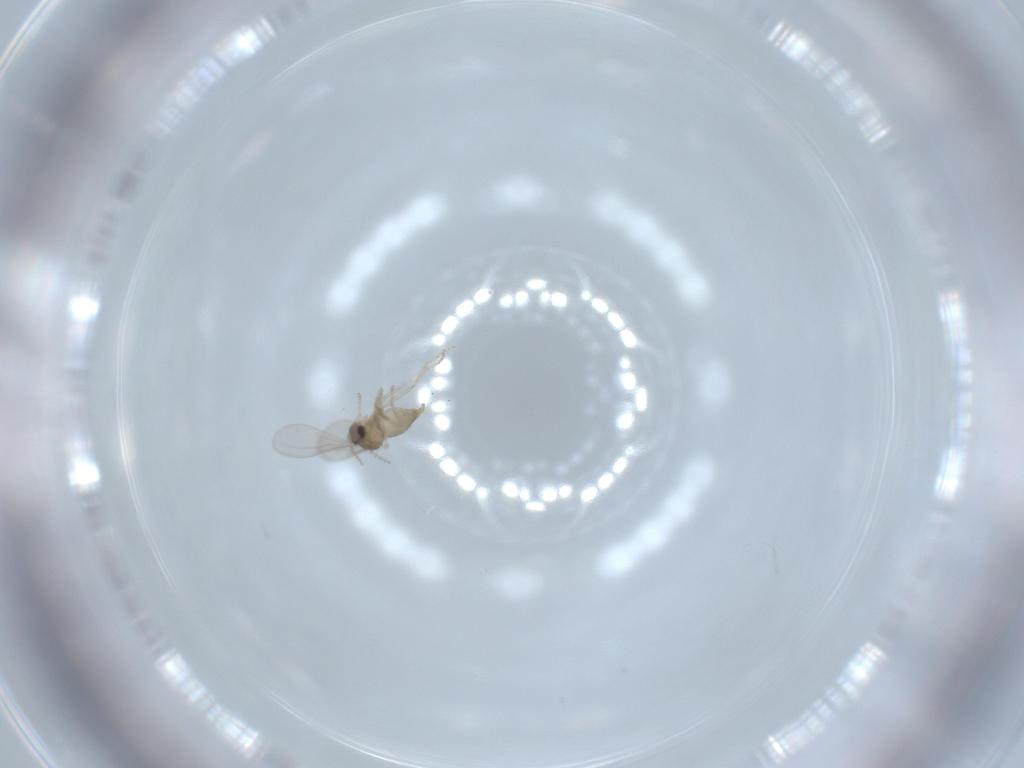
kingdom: Animalia
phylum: Arthropoda
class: Insecta
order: Diptera
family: Cecidomyiidae
